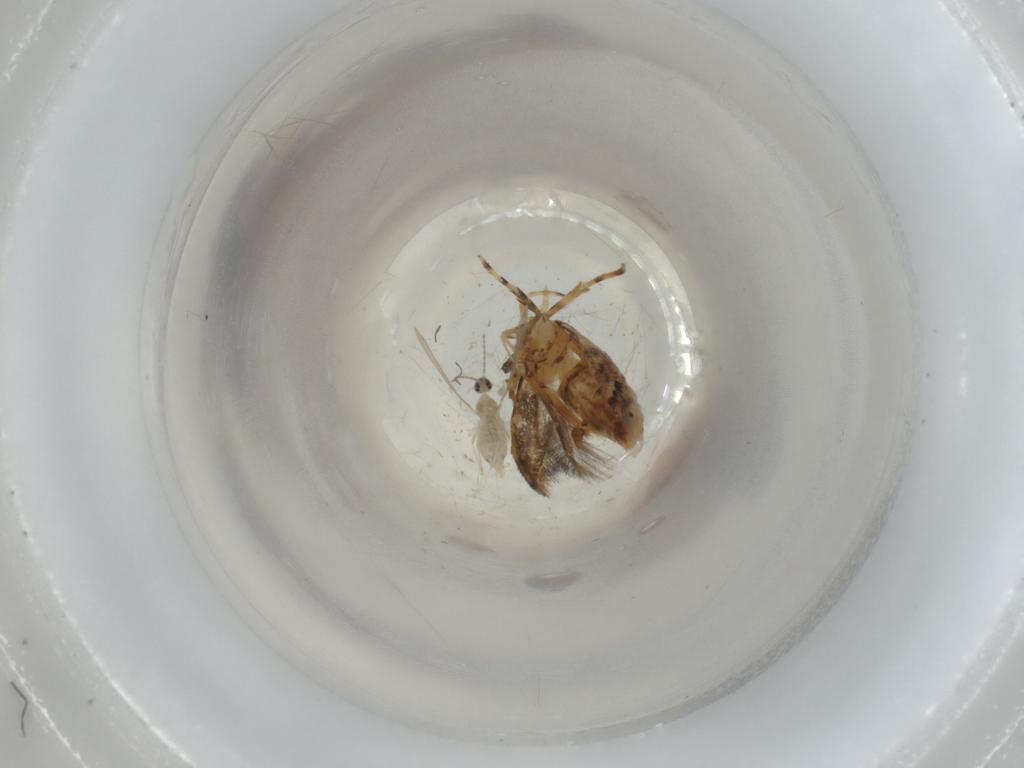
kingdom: Animalia
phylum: Arthropoda
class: Insecta
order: Lepidoptera
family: Cosmopterigidae
